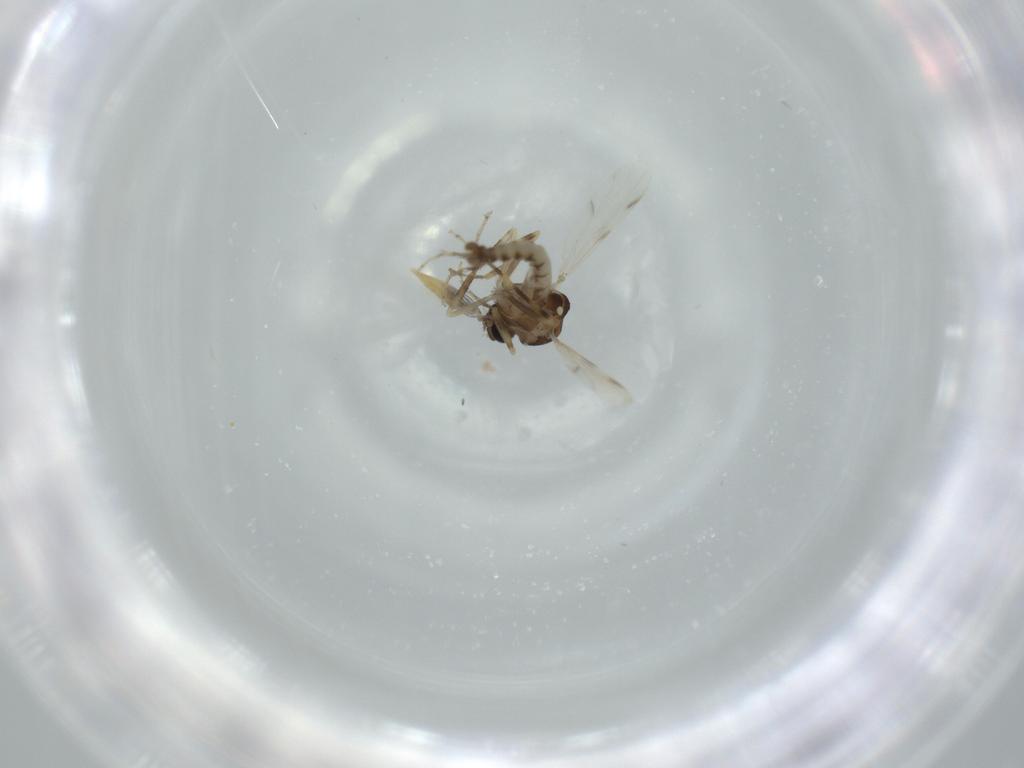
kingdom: Animalia
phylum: Arthropoda
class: Insecta
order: Diptera
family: Ceratopogonidae
